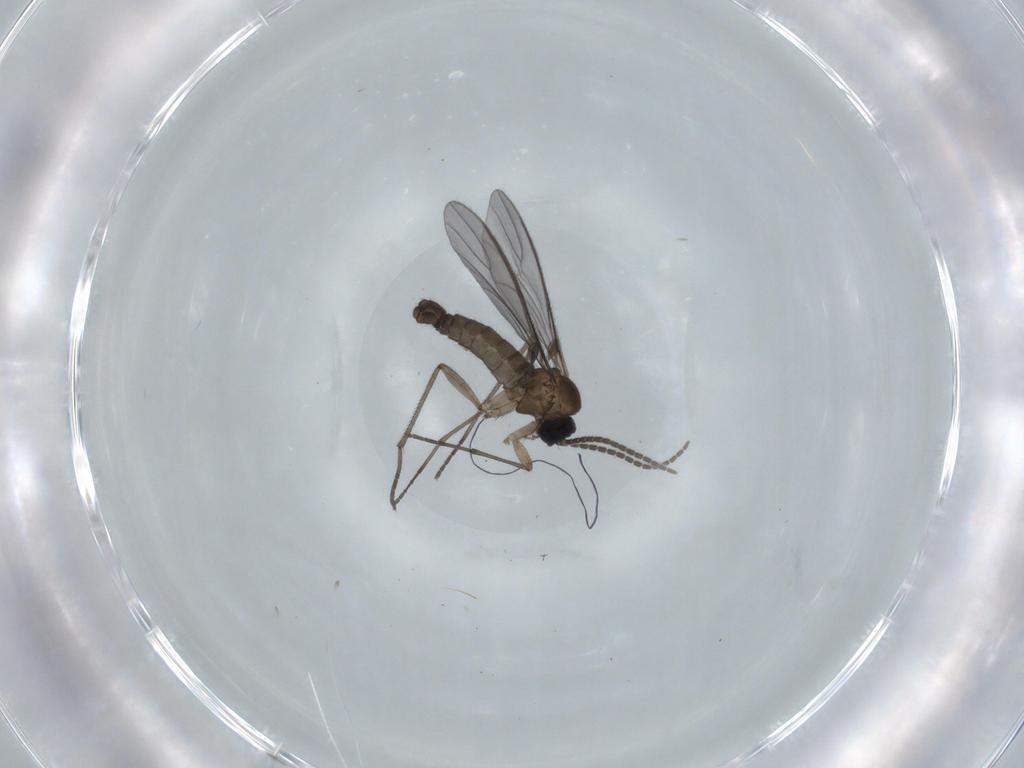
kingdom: Animalia
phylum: Arthropoda
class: Insecta
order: Diptera
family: Sciaridae
